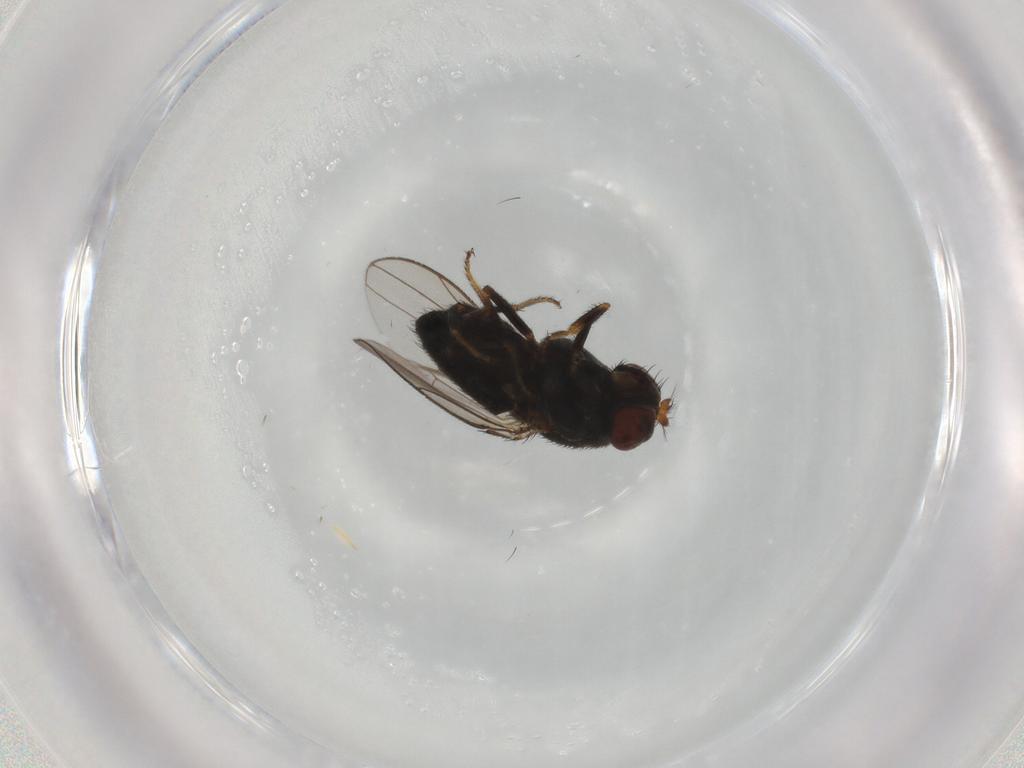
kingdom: Animalia
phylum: Arthropoda
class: Insecta
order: Diptera
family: Ephydridae
